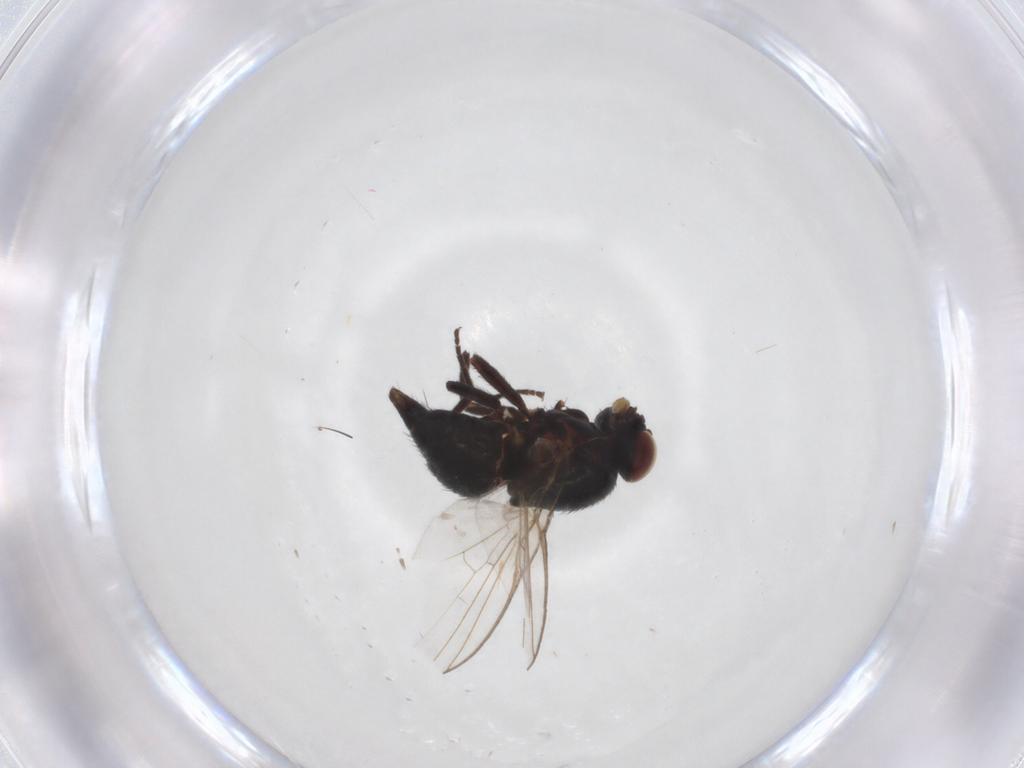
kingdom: Animalia
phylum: Arthropoda
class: Insecta
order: Diptera
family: Agromyzidae
